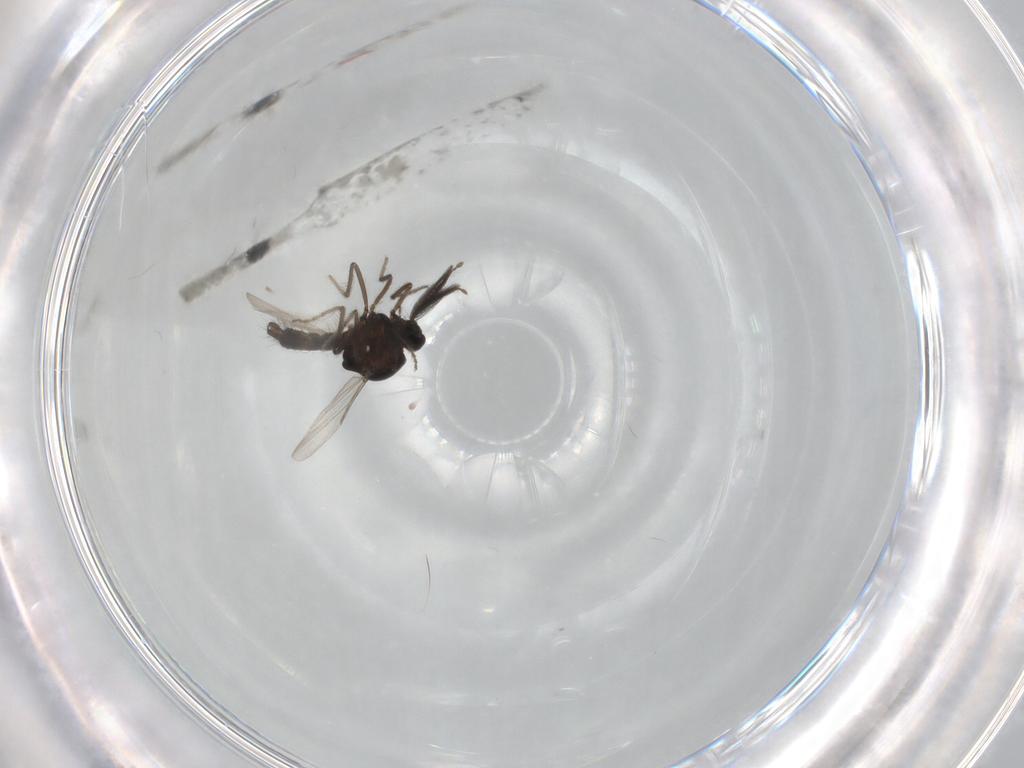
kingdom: Animalia
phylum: Arthropoda
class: Insecta
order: Diptera
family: Ceratopogonidae
